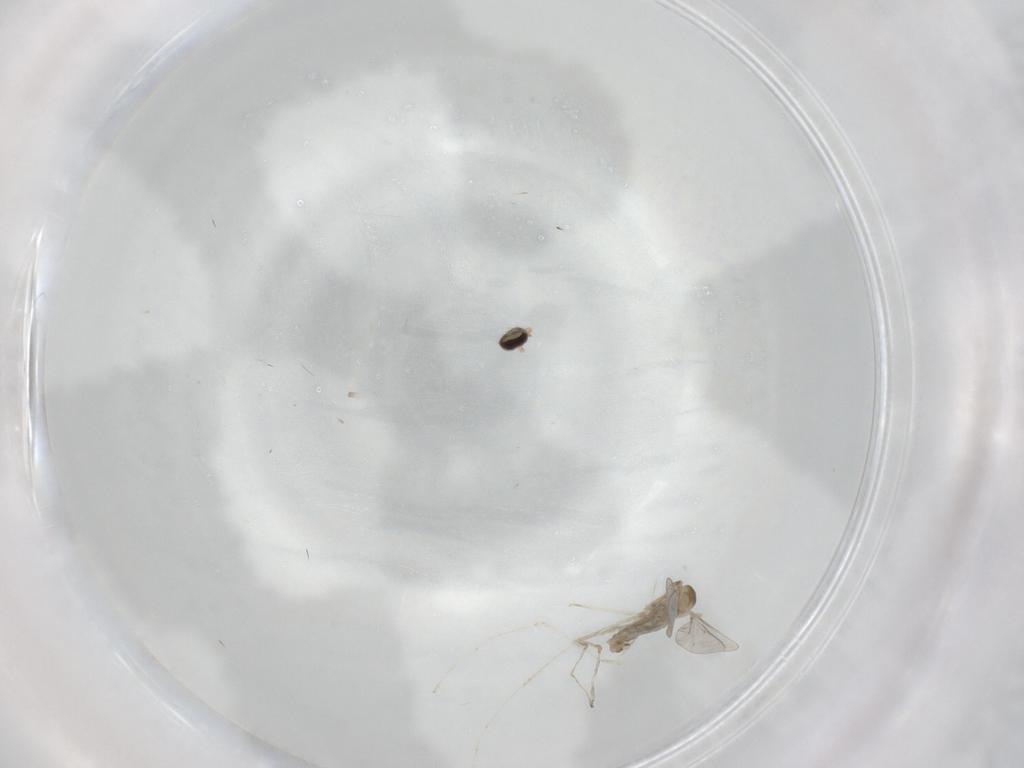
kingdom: Animalia
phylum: Arthropoda
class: Insecta
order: Diptera
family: Cecidomyiidae
